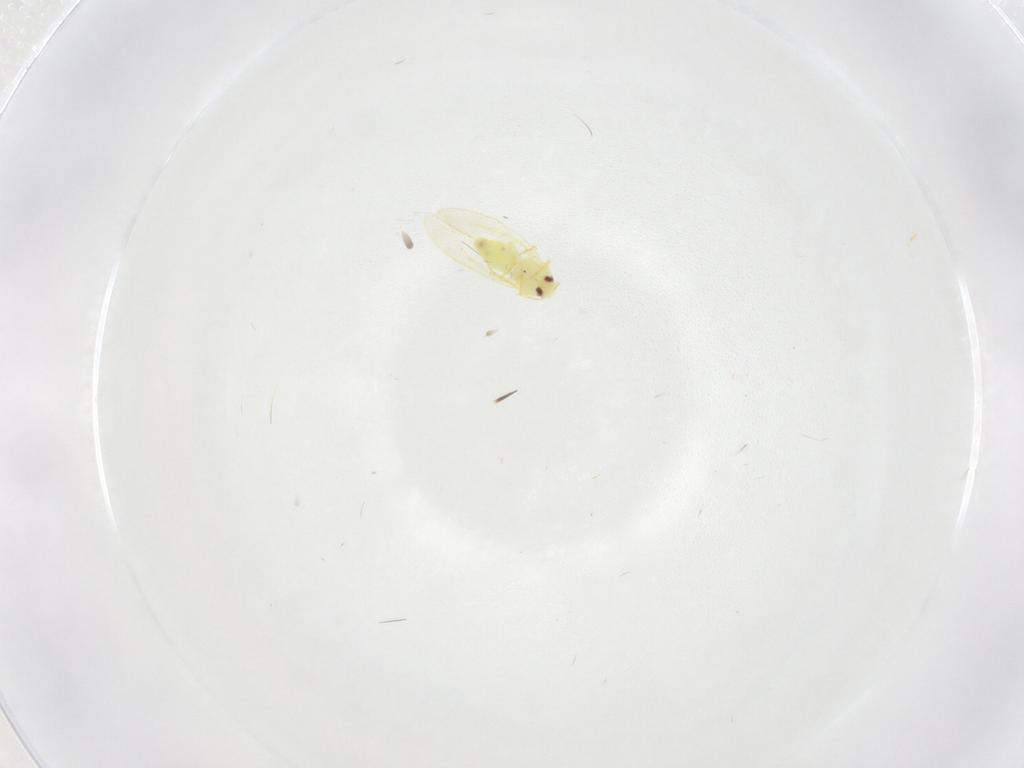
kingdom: Animalia
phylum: Arthropoda
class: Insecta
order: Hemiptera
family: Aleyrodidae
